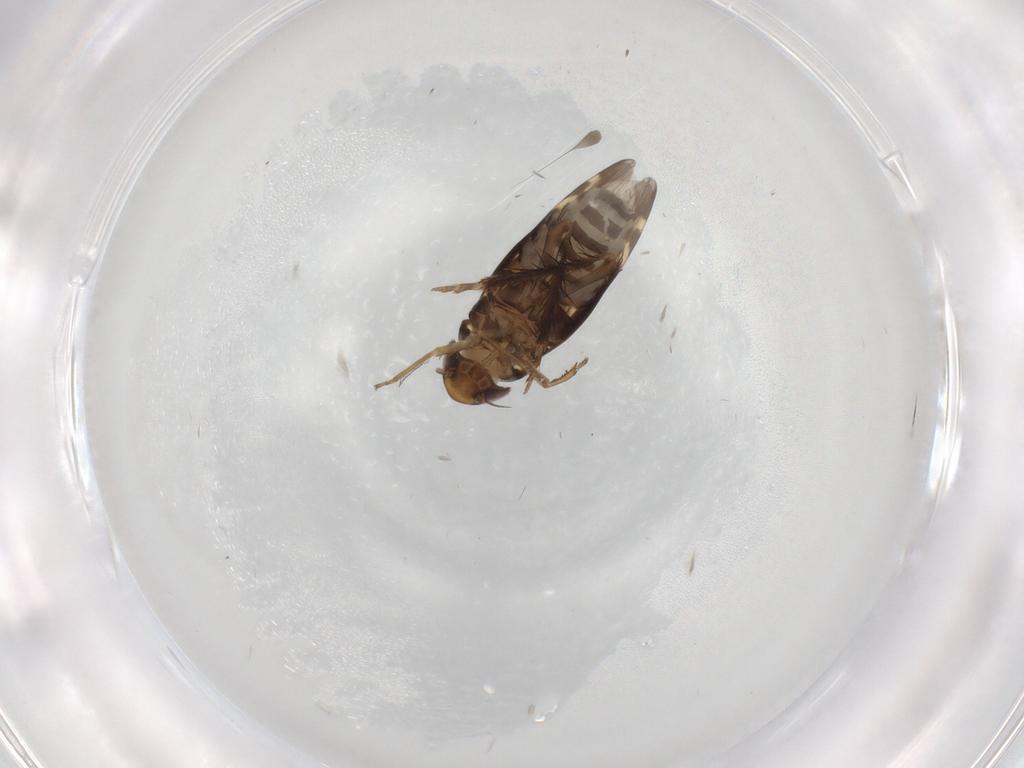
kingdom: Animalia
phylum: Arthropoda
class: Insecta
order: Hemiptera
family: Cicadellidae
